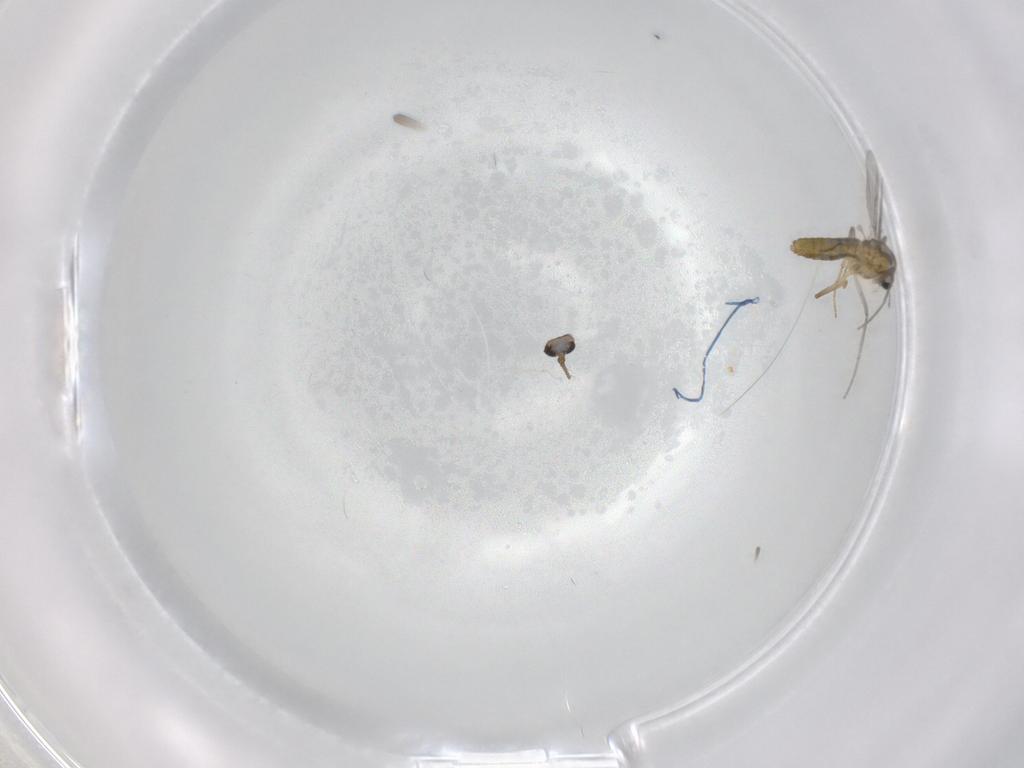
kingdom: Animalia
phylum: Arthropoda
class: Insecta
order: Diptera
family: Ceratopogonidae
